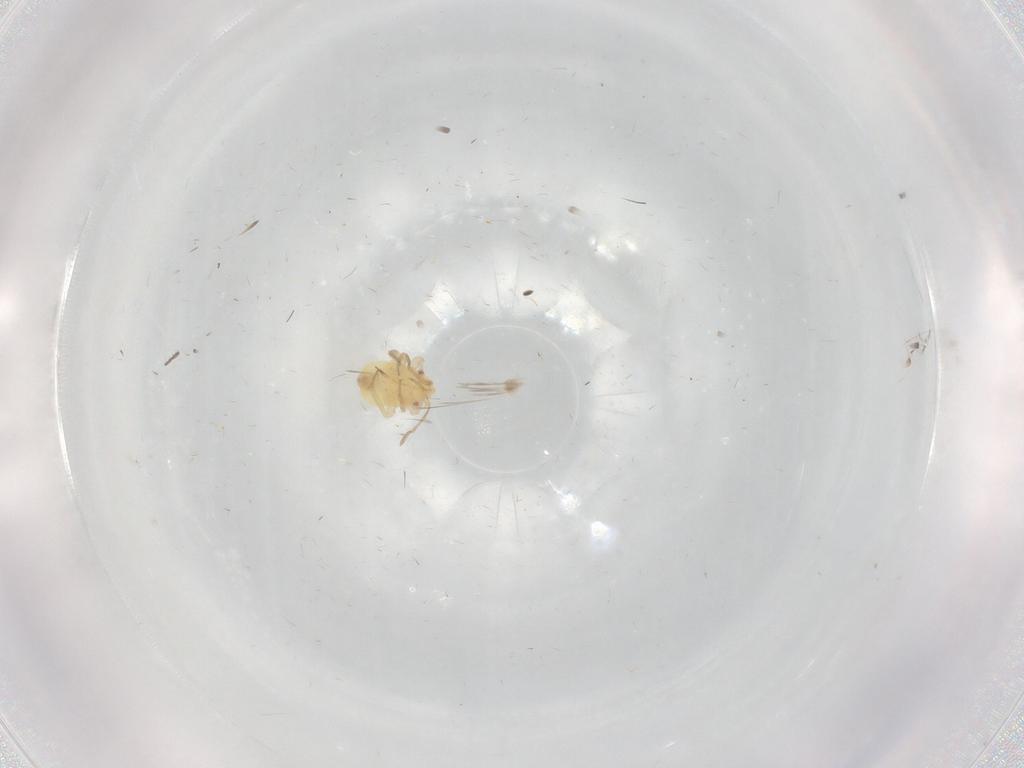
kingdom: Animalia
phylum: Arthropoda
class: Insecta
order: Hemiptera
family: Miridae
